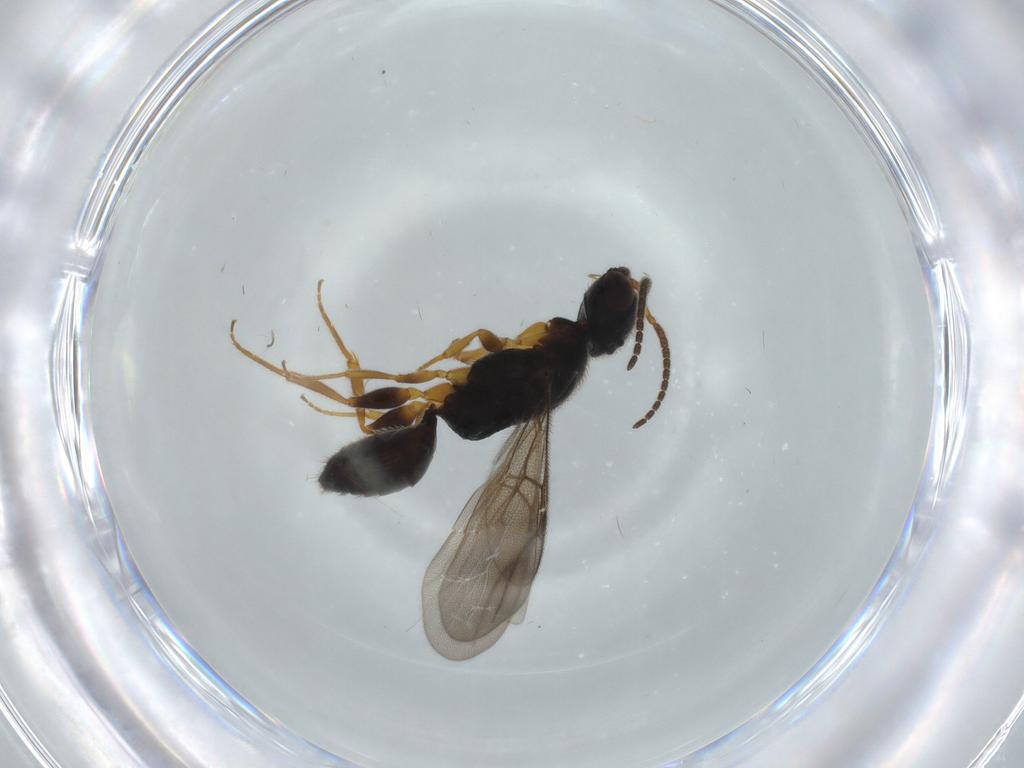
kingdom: Animalia
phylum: Arthropoda
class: Insecta
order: Hymenoptera
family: Bethylidae
